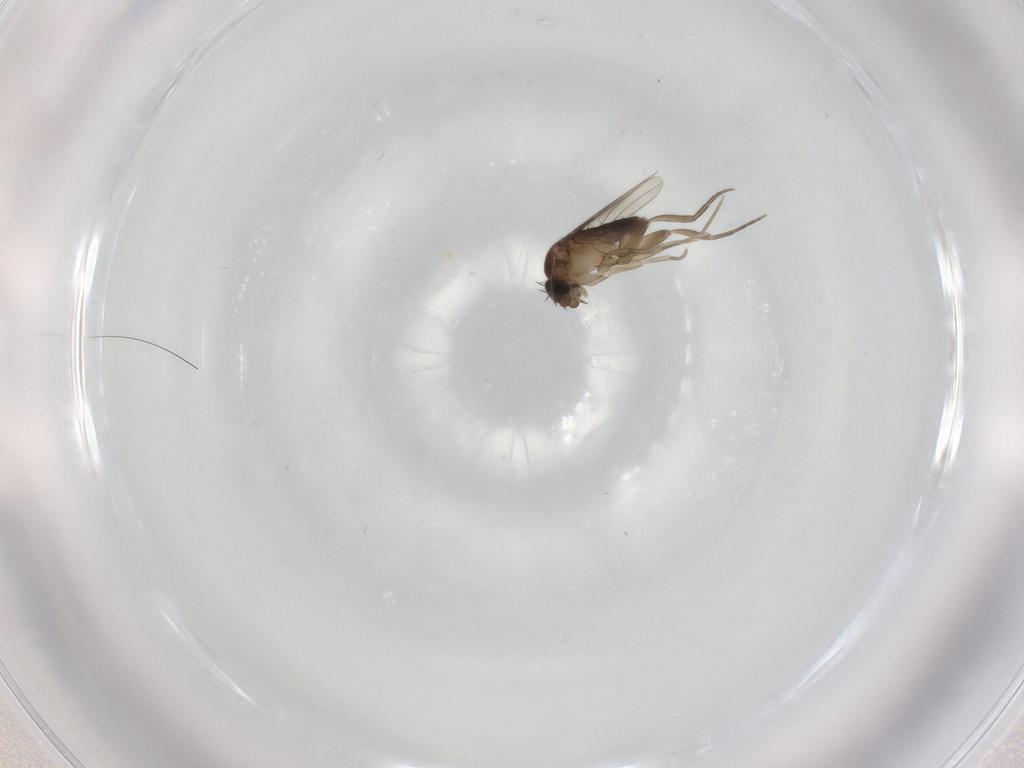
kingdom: Animalia
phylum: Arthropoda
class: Insecta
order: Diptera
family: Phoridae
